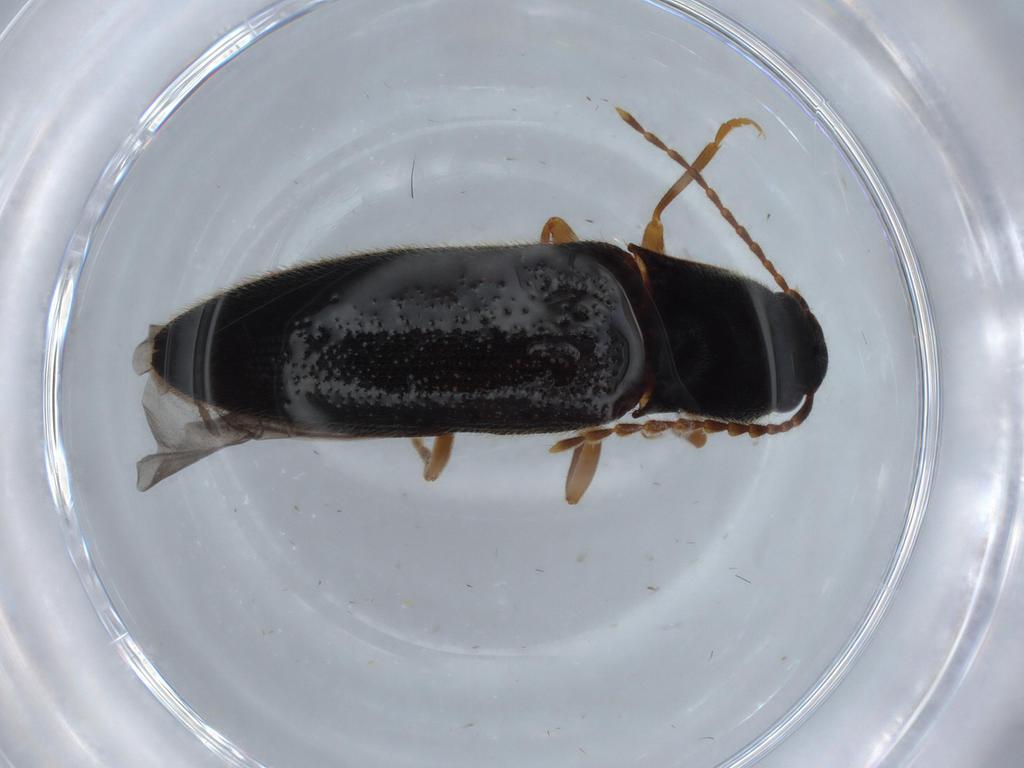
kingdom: Animalia
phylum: Arthropoda
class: Insecta
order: Coleoptera
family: Elateridae
